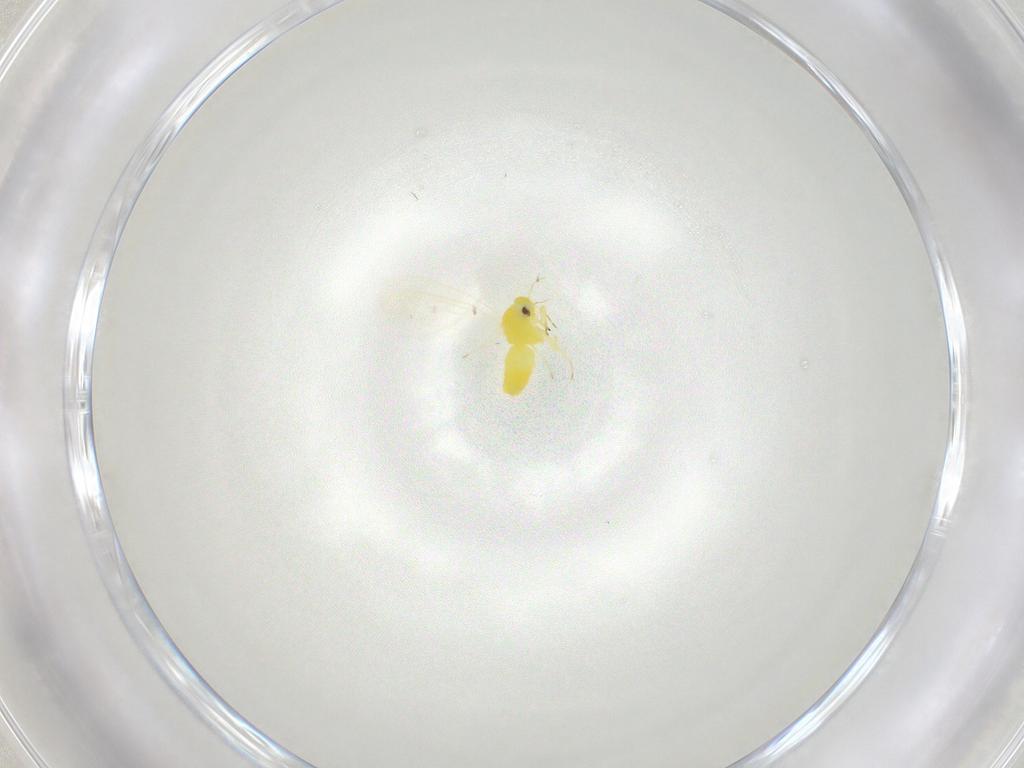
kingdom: Animalia
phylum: Arthropoda
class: Insecta
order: Hemiptera
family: Aleyrodidae
